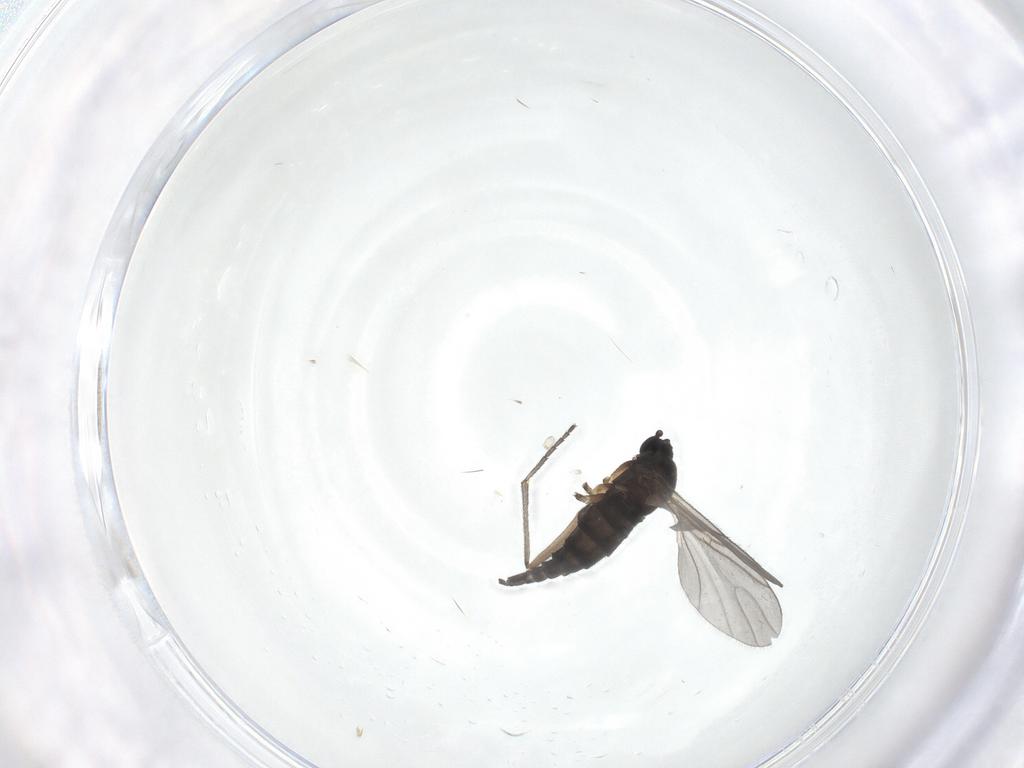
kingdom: Animalia
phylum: Arthropoda
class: Insecta
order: Diptera
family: Sciaridae
